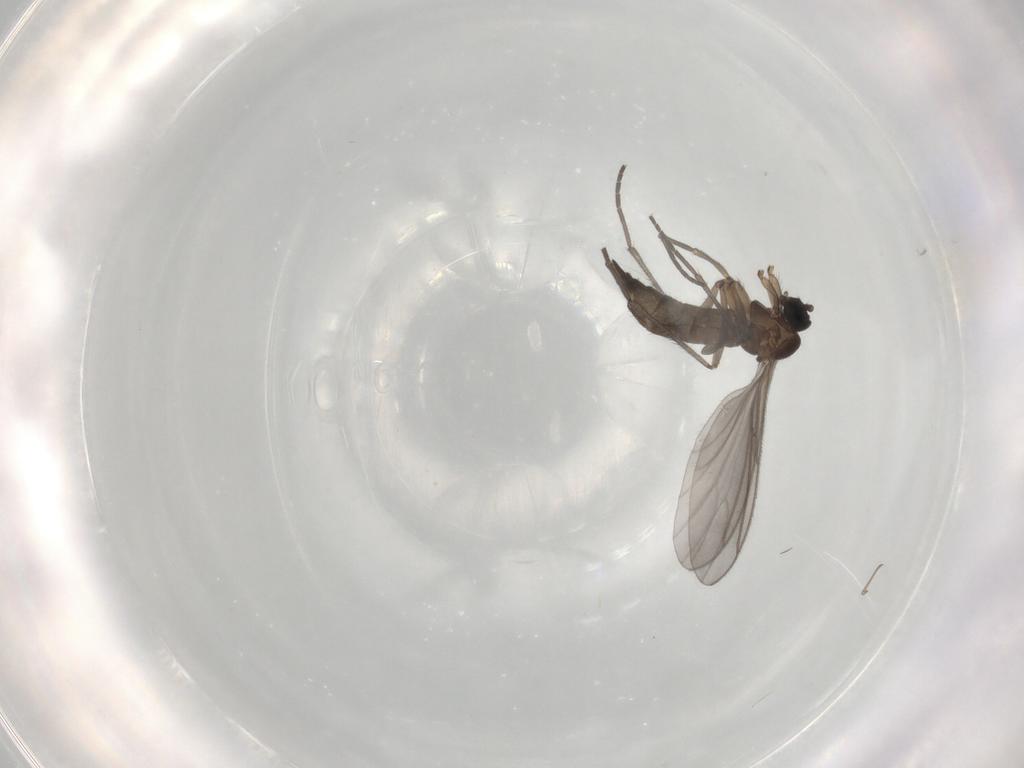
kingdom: Animalia
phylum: Arthropoda
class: Insecta
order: Diptera
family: Sciaridae
